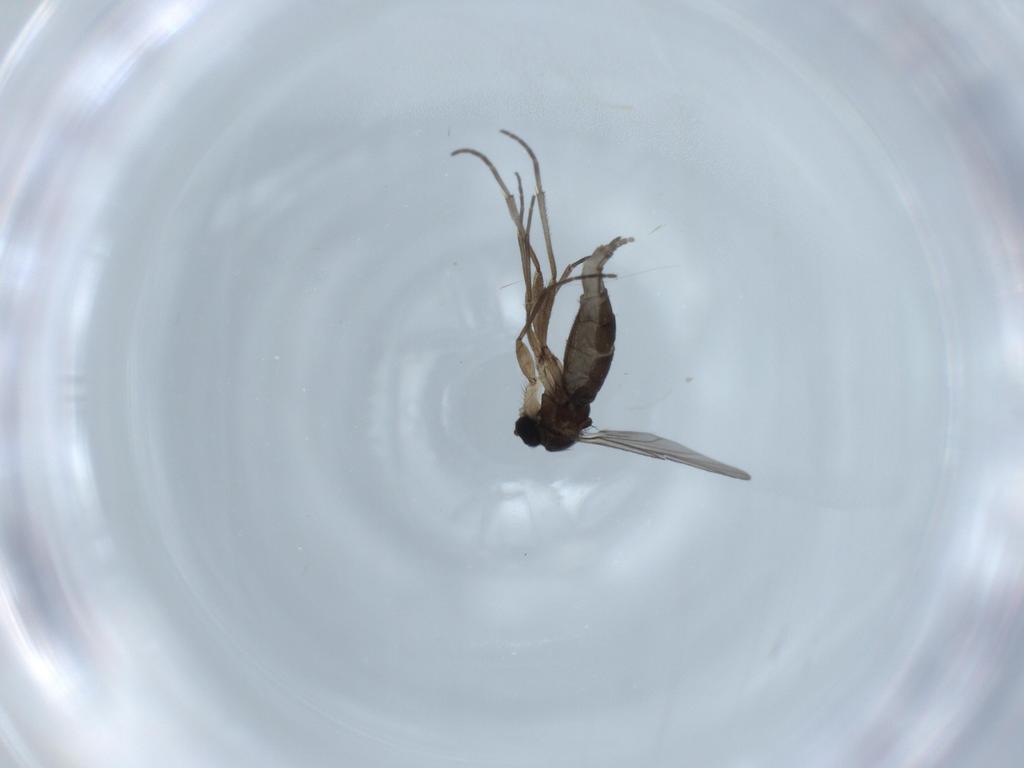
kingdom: Animalia
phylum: Arthropoda
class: Insecta
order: Diptera
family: Sciaridae
